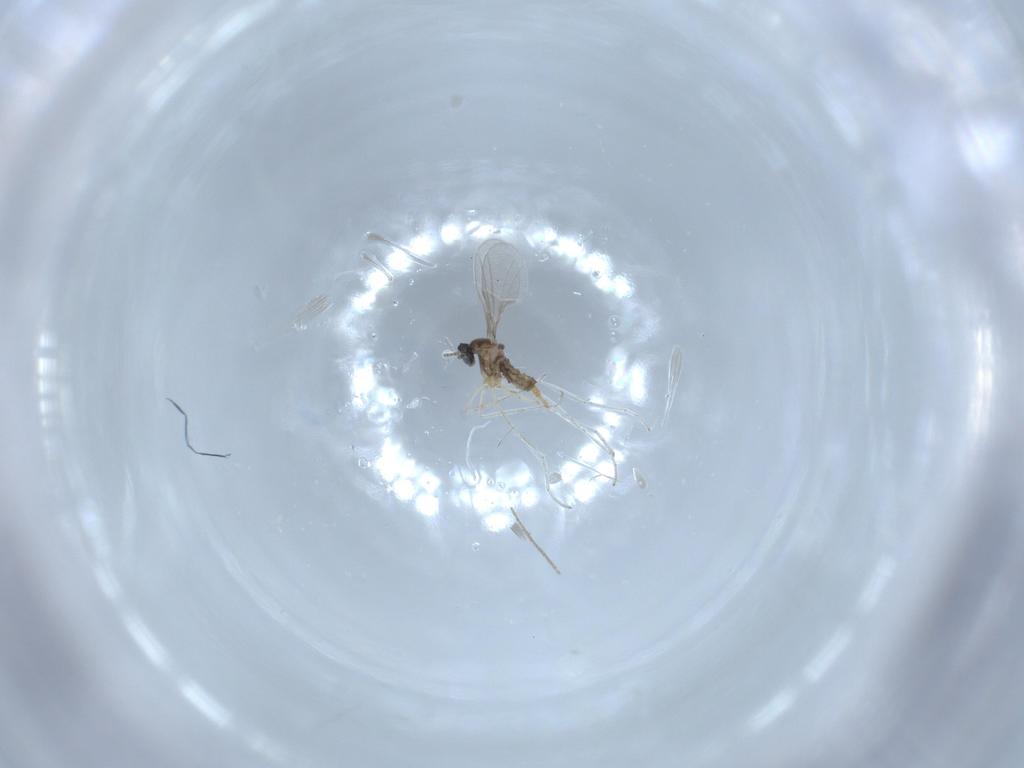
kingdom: Animalia
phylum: Arthropoda
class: Insecta
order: Diptera
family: Cecidomyiidae
